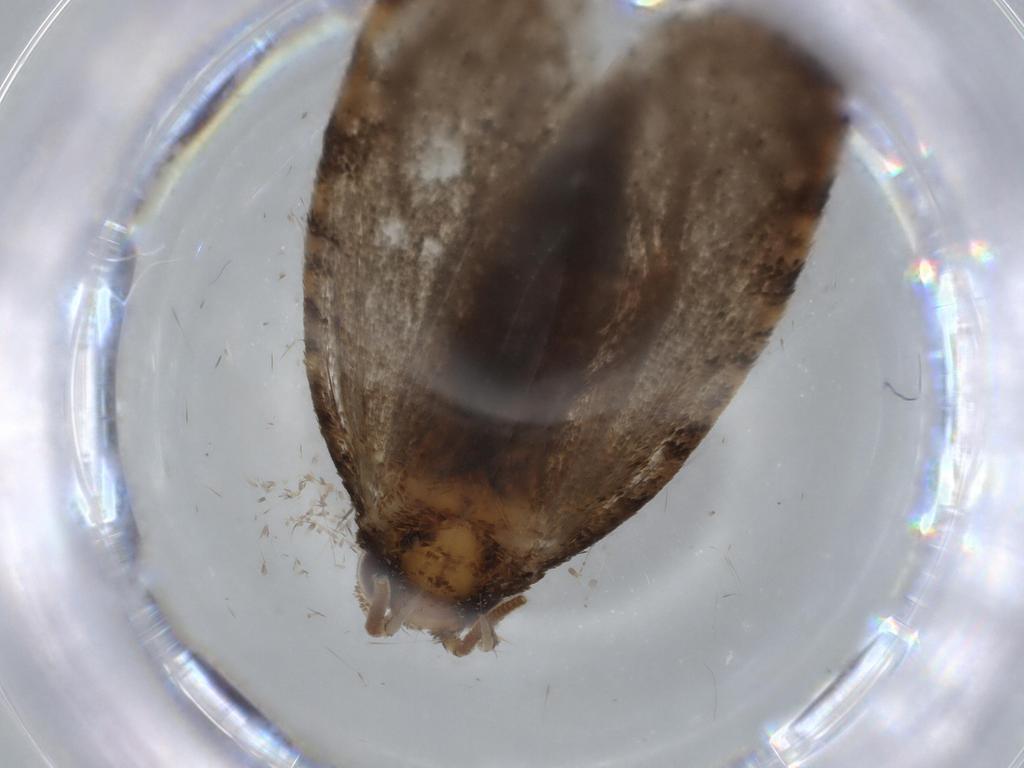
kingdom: Animalia
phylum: Arthropoda
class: Insecta
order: Lepidoptera
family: Tineidae
